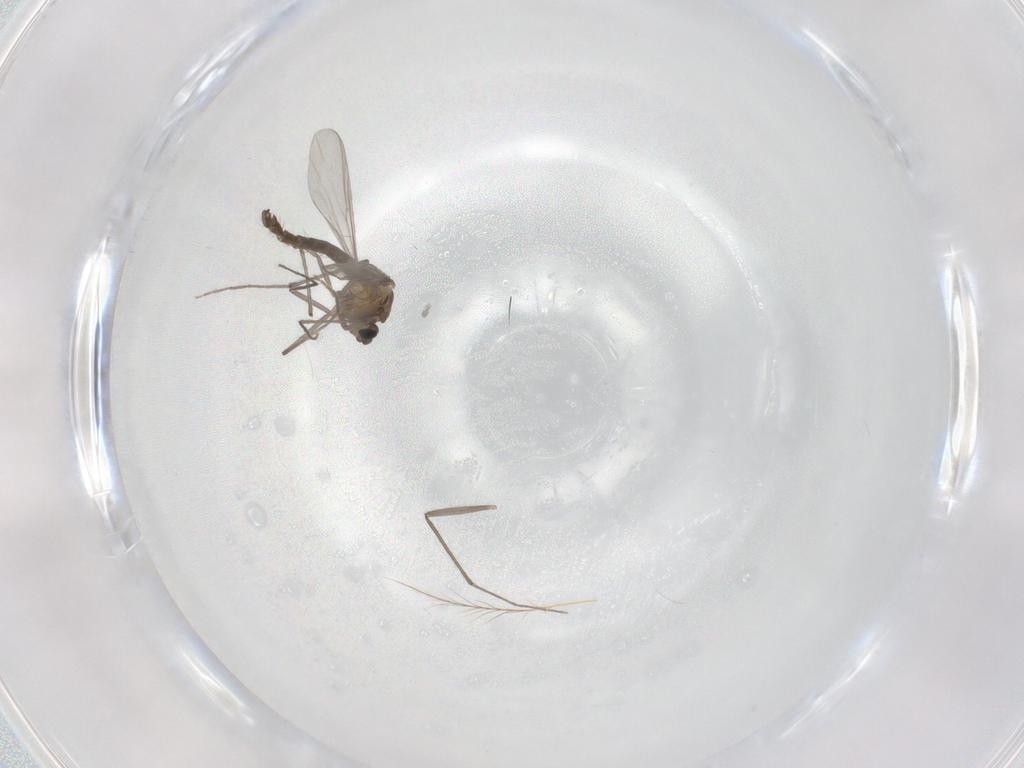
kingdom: Animalia
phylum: Arthropoda
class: Insecta
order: Diptera
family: Chironomidae
